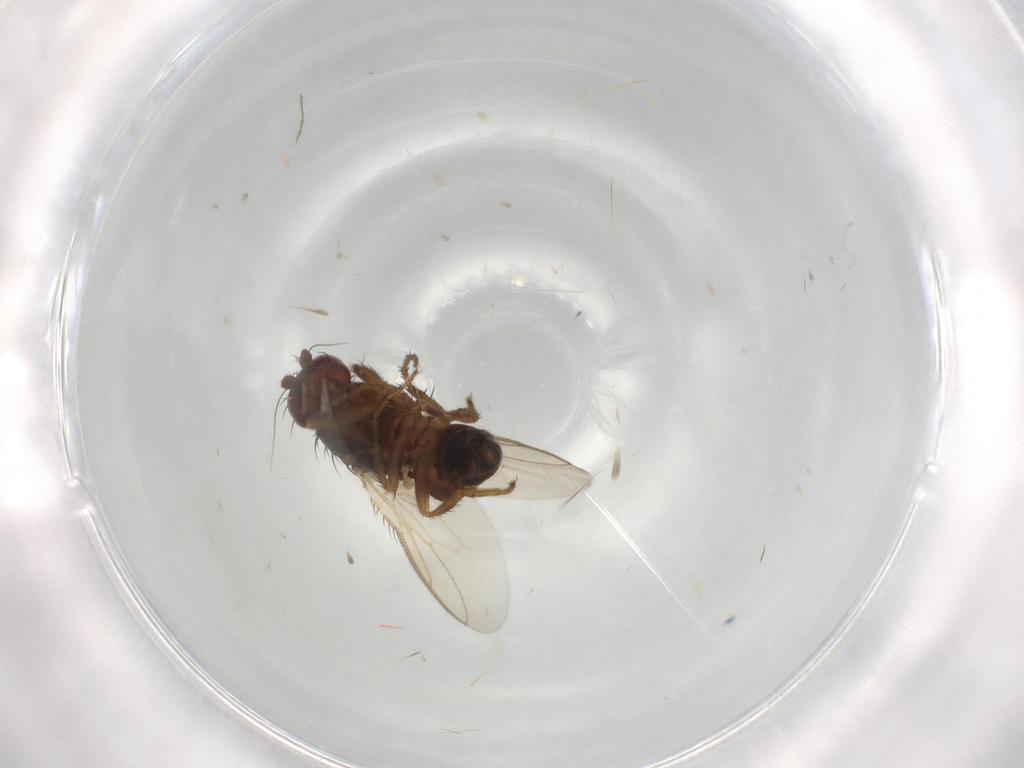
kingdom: Animalia
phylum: Arthropoda
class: Insecta
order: Diptera
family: Sphaeroceridae
